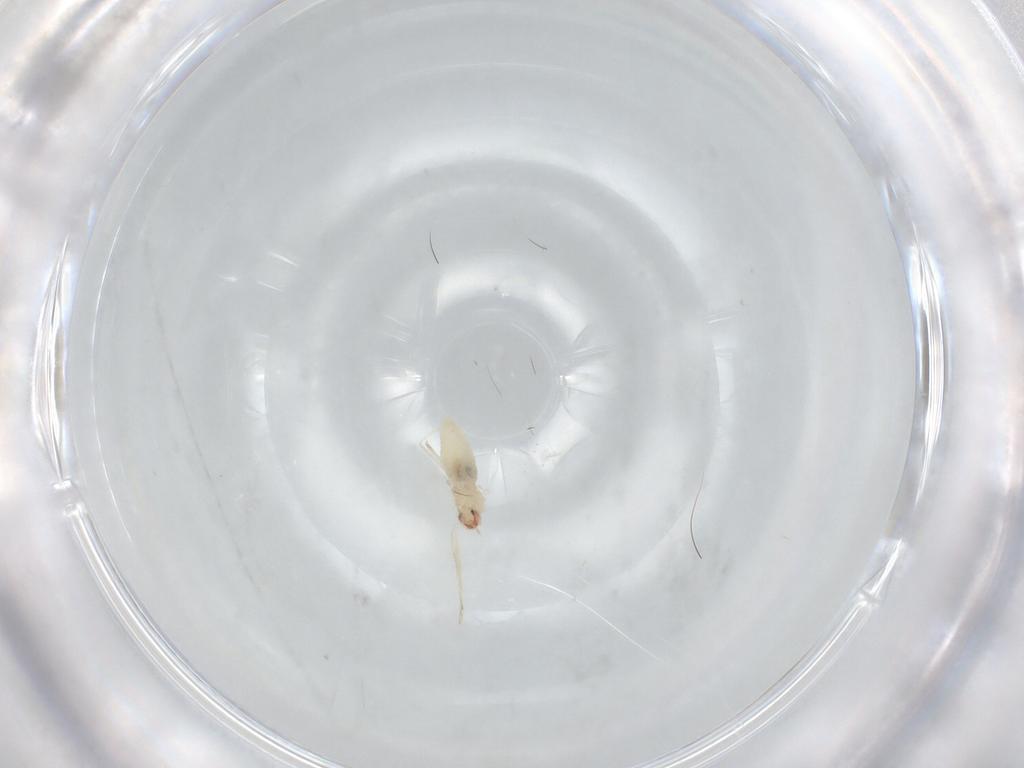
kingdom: Animalia
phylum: Arthropoda
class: Insecta
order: Diptera
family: Cecidomyiidae
